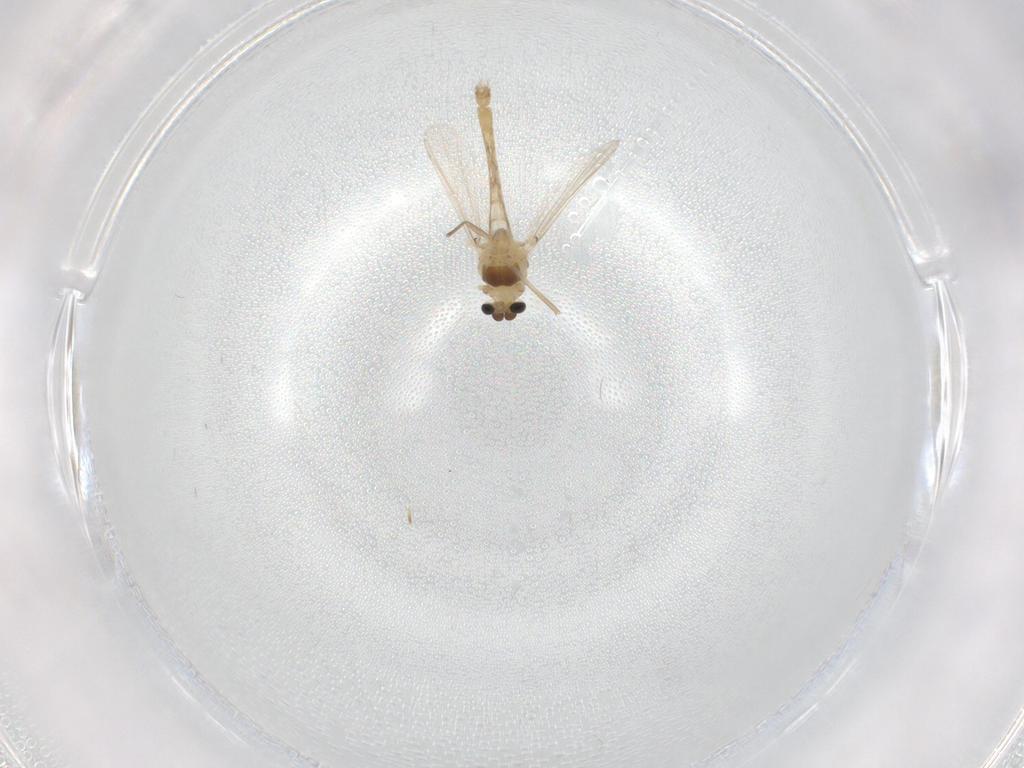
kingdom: Animalia
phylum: Arthropoda
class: Insecta
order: Diptera
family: Chironomidae
